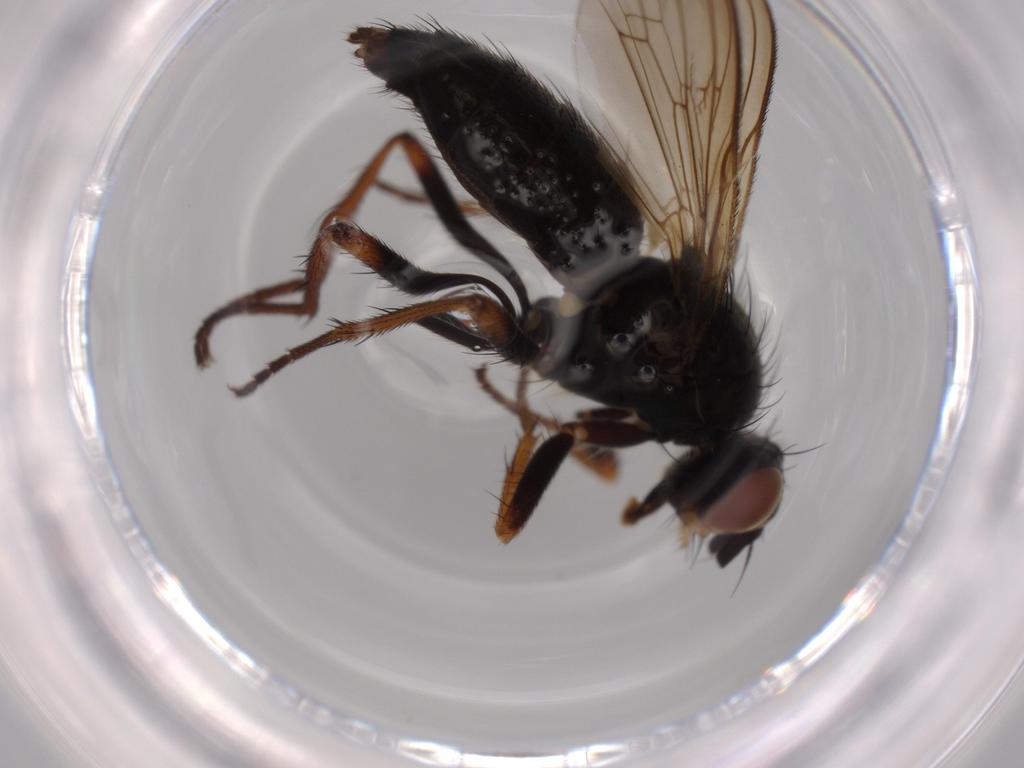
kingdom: Animalia
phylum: Arthropoda
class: Insecta
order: Diptera
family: Scathophagidae
